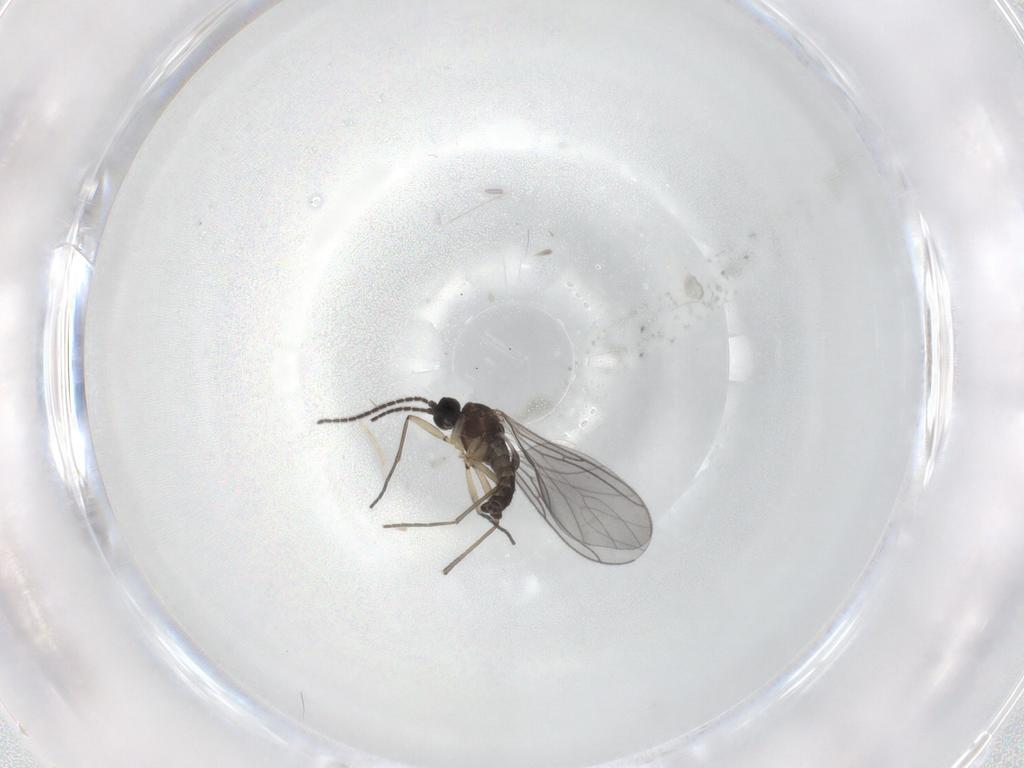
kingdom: Animalia
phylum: Arthropoda
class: Insecta
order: Diptera
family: Sciaridae
